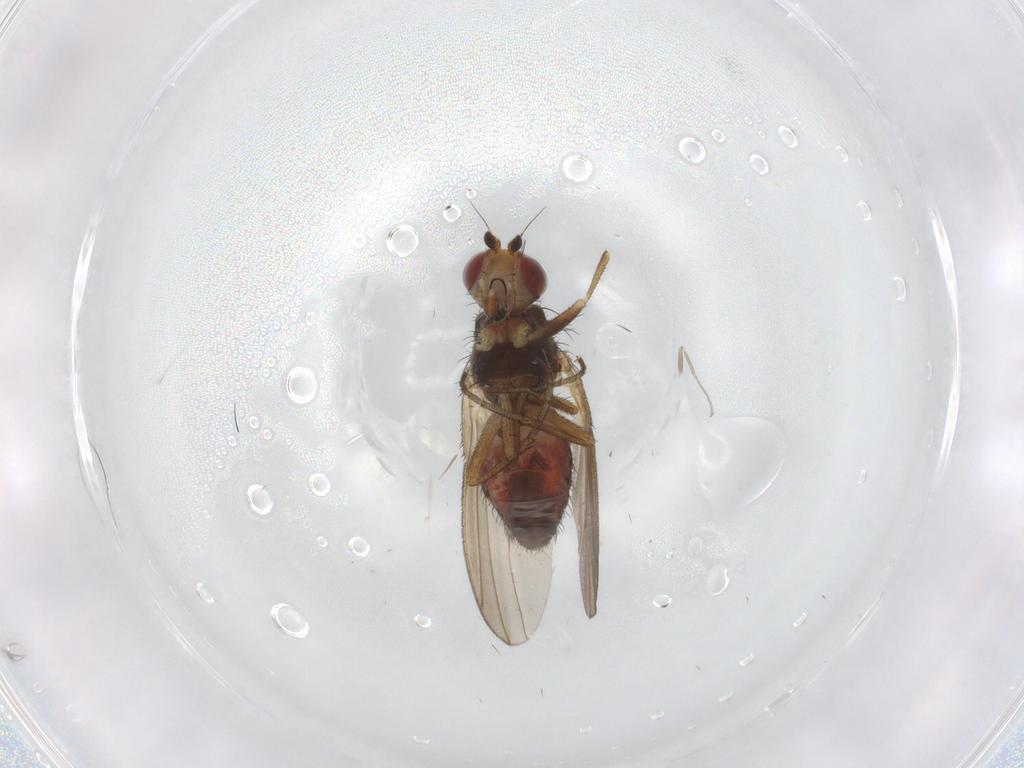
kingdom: Animalia
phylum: Arthropoda
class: Insecta
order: Diptera
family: Heleomyzidae
